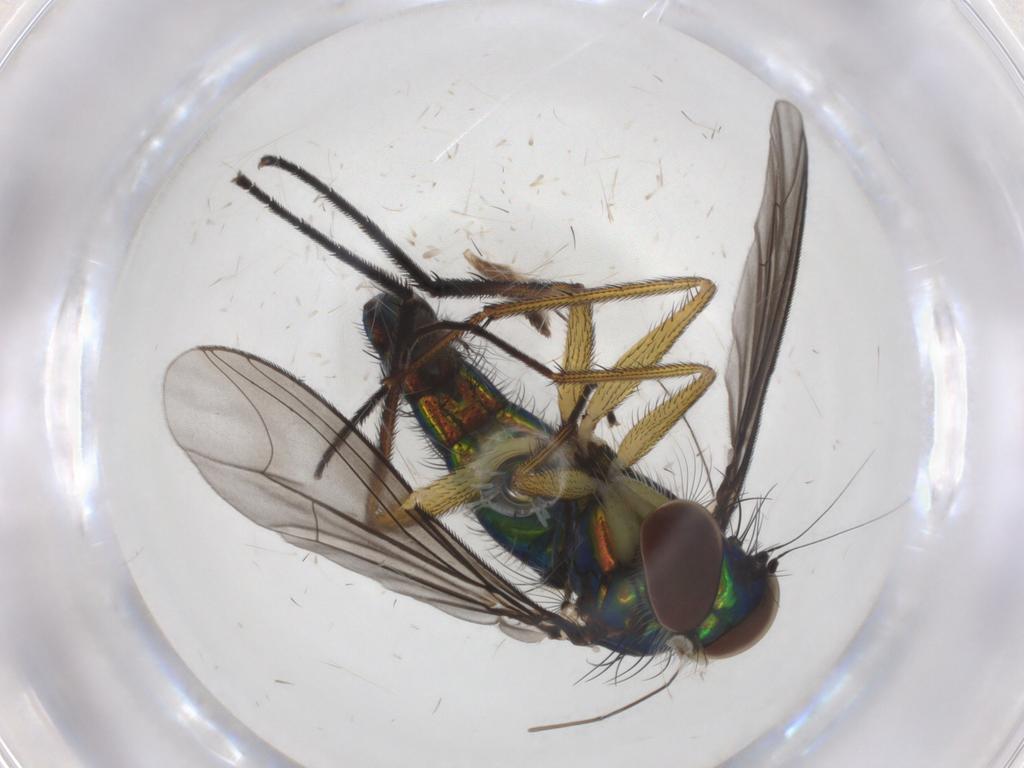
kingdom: Animalia
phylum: Arthropoda
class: Insecta
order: Diptera
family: Dolichopodidae
